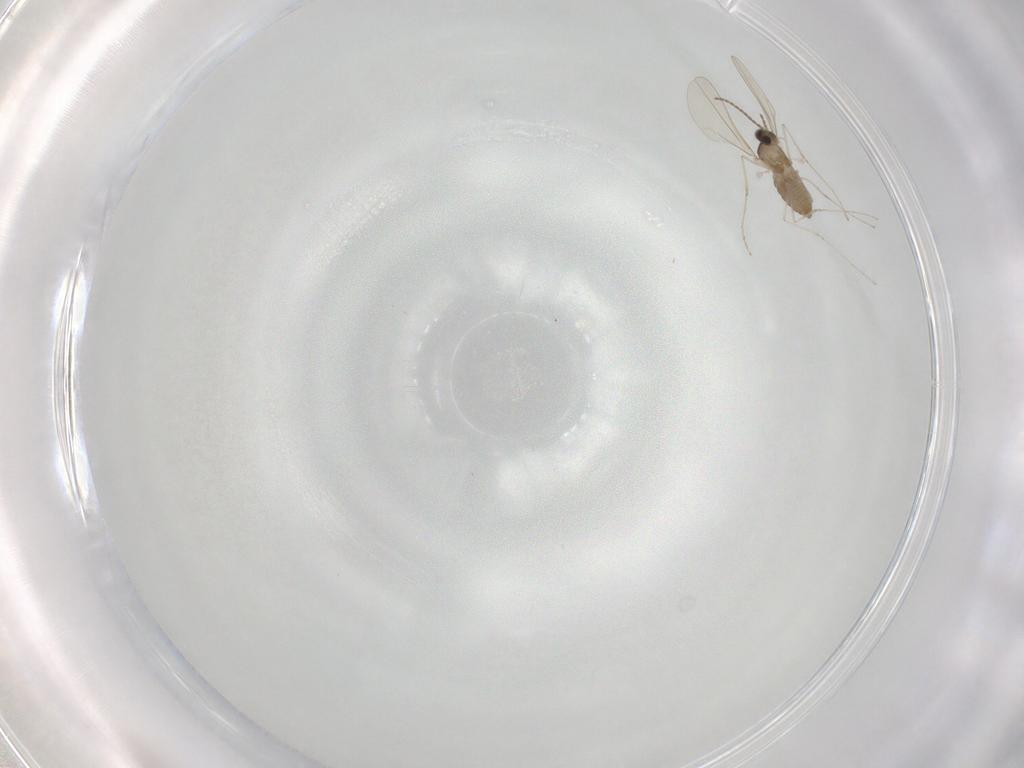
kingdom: Animalia
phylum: Arthropoda
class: Insecta
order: Diptera
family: Cecidomyiidae
